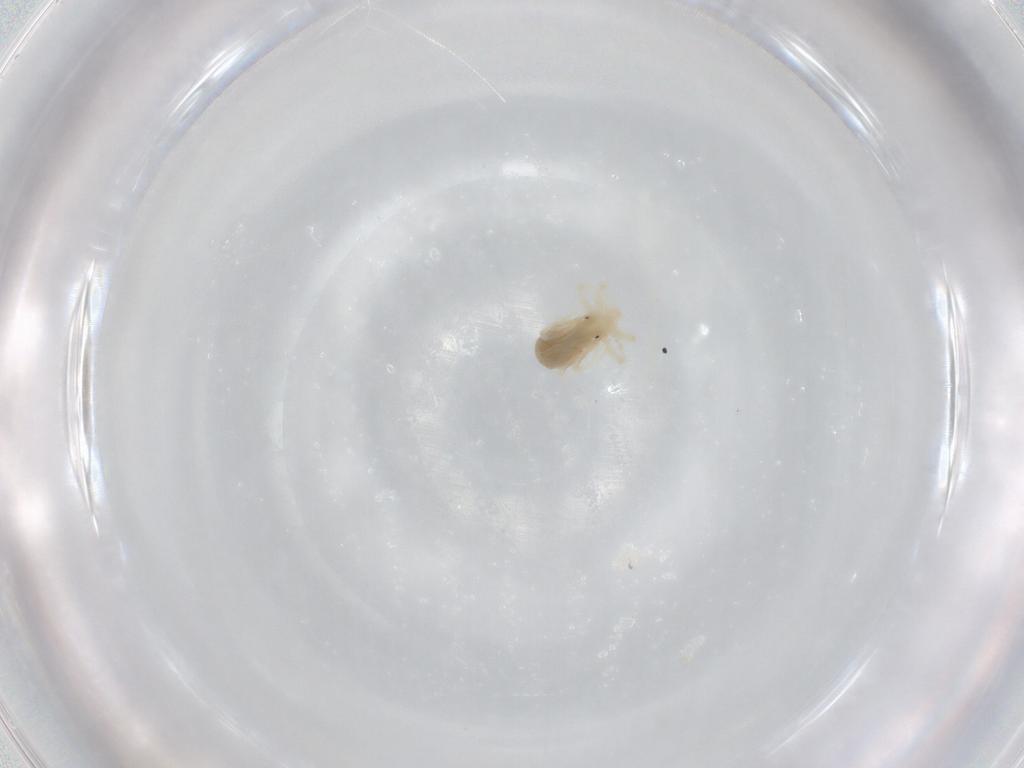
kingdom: Animalia
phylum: Arthropoda
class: Arachnida
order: Trombidiformes
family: Anystidae
